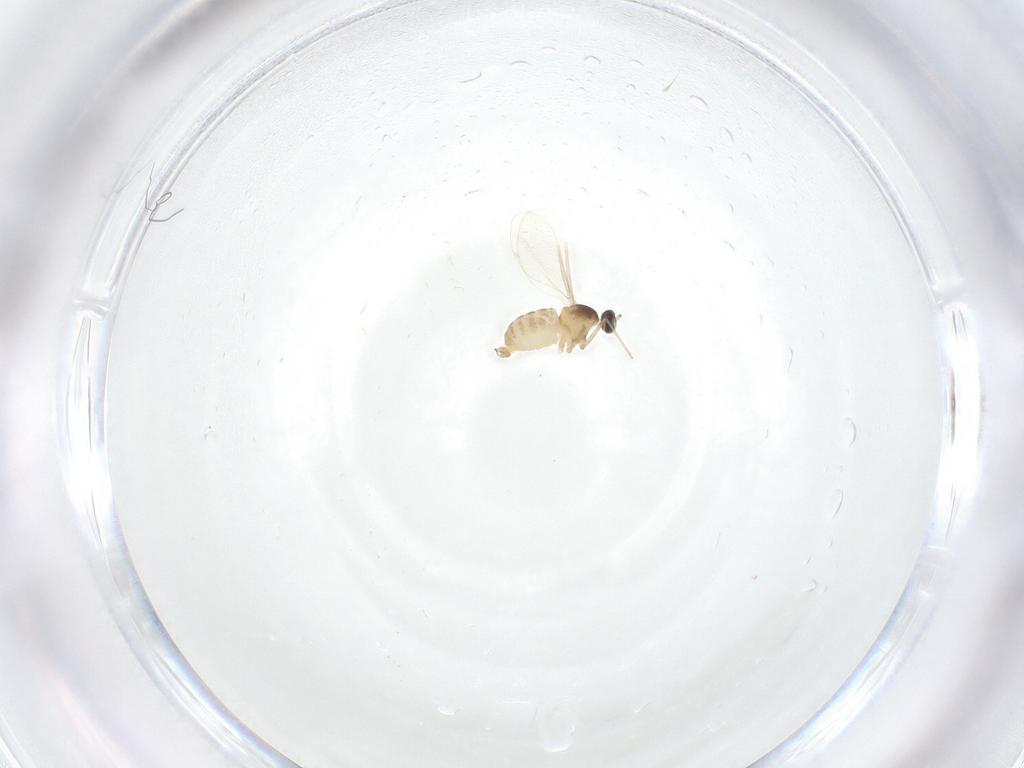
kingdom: Animalia
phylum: Arthropoda
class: Insecta
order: Diptera
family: Cecidomyiidae
